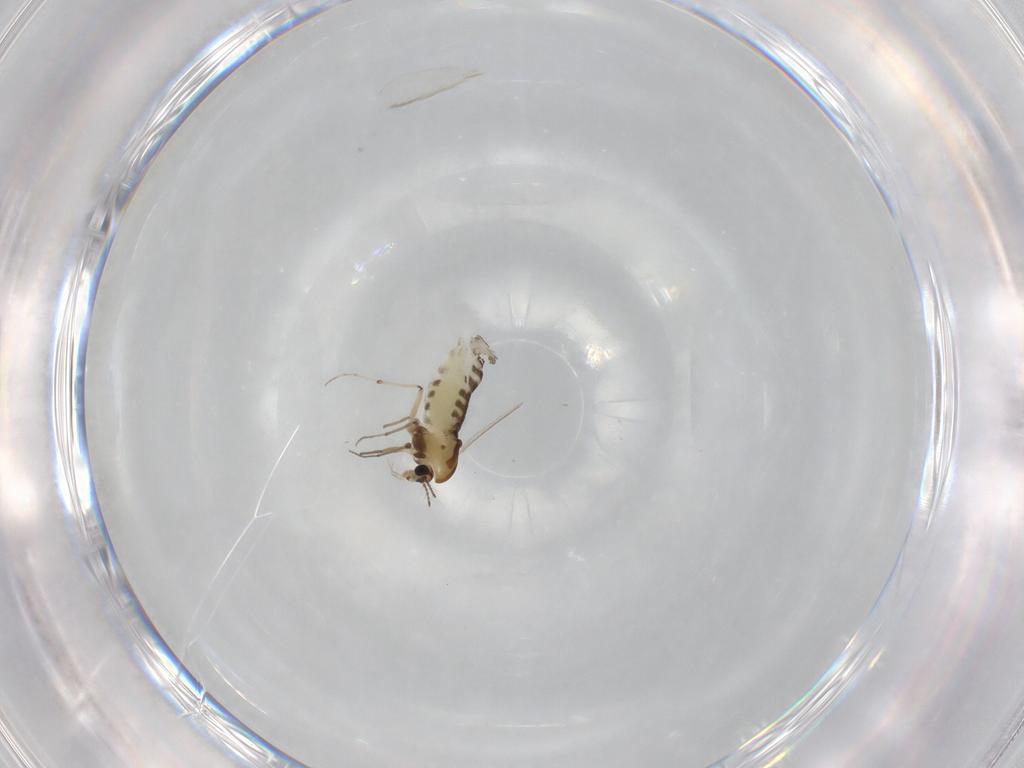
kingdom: Animalia
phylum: Arthropoda
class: Insecta
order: Diptera
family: Chironomidae
